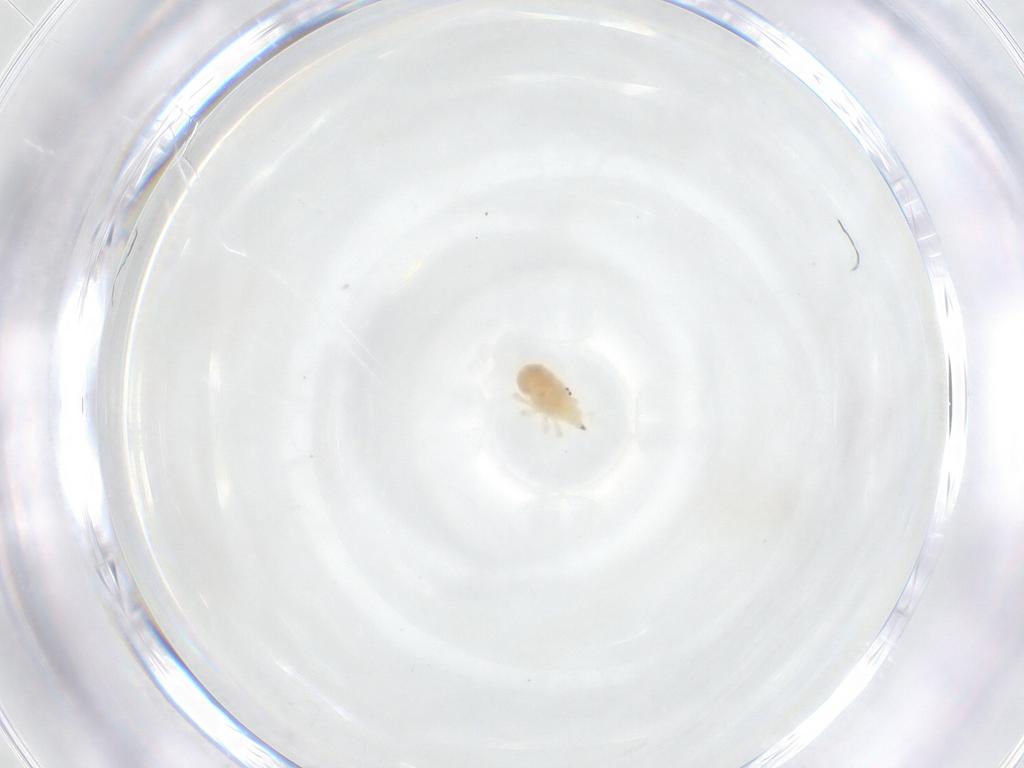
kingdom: Animalia
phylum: Arthropoda
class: Arachnida
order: Trombidiformes
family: Bdellidae
